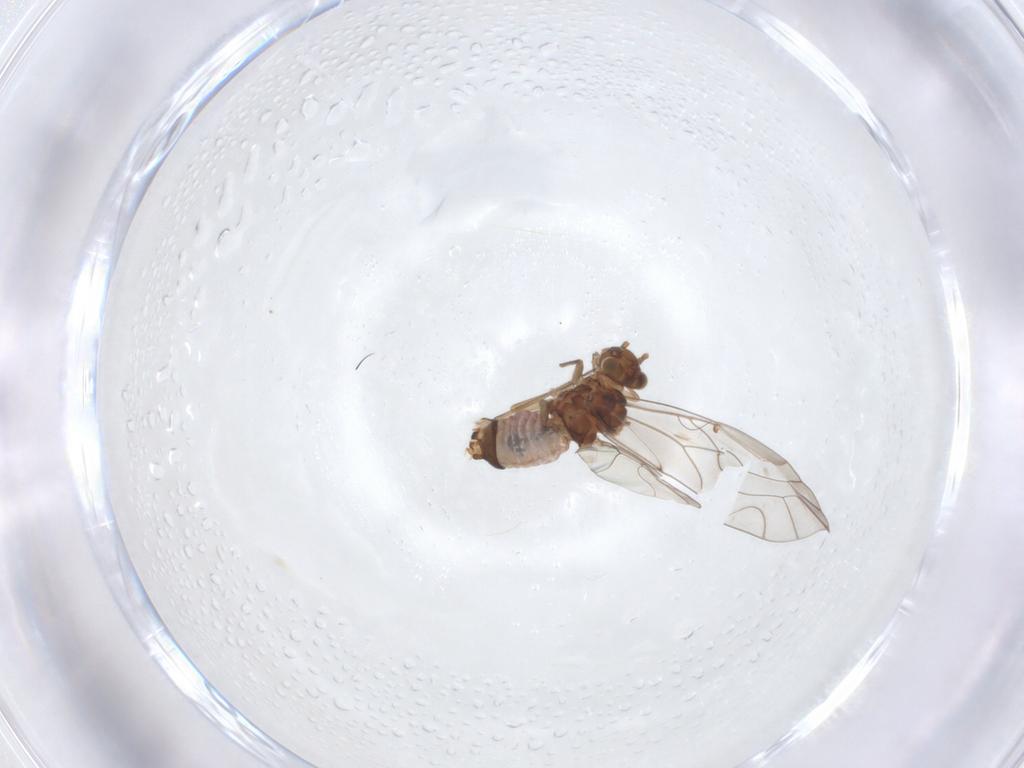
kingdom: Animalia
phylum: Arthropoda
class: Insecta
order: Psocodea
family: Lachesillidae
